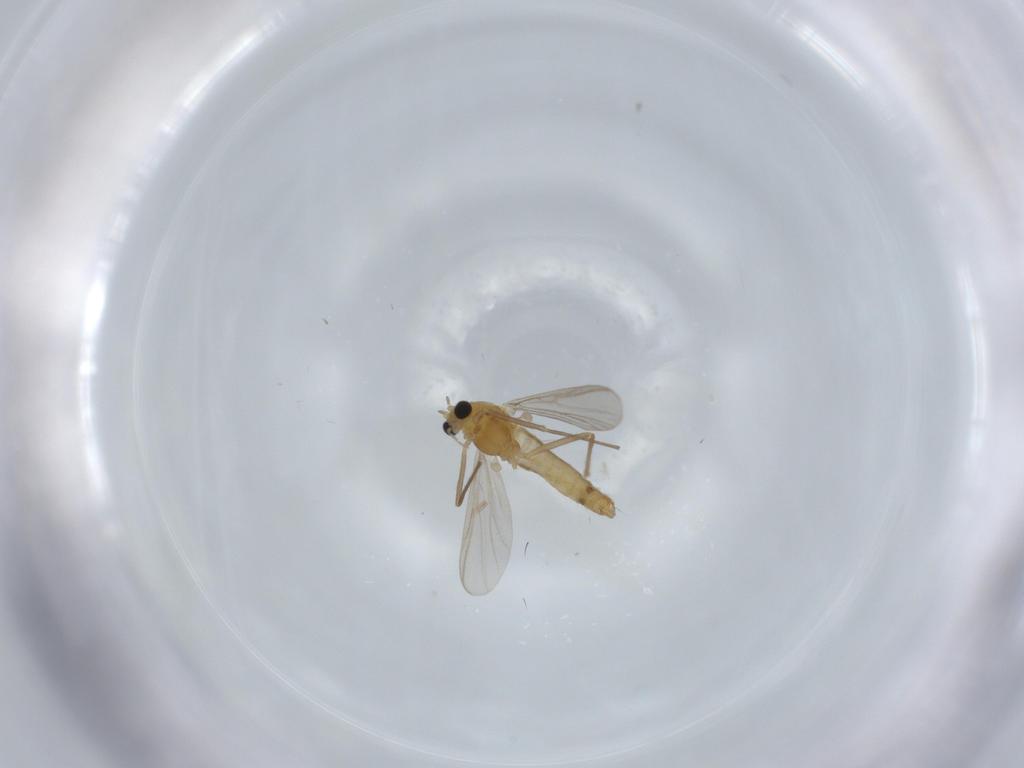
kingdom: Animalia
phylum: Arthropoda
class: Insecta
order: Diptera
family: Chironomidae
